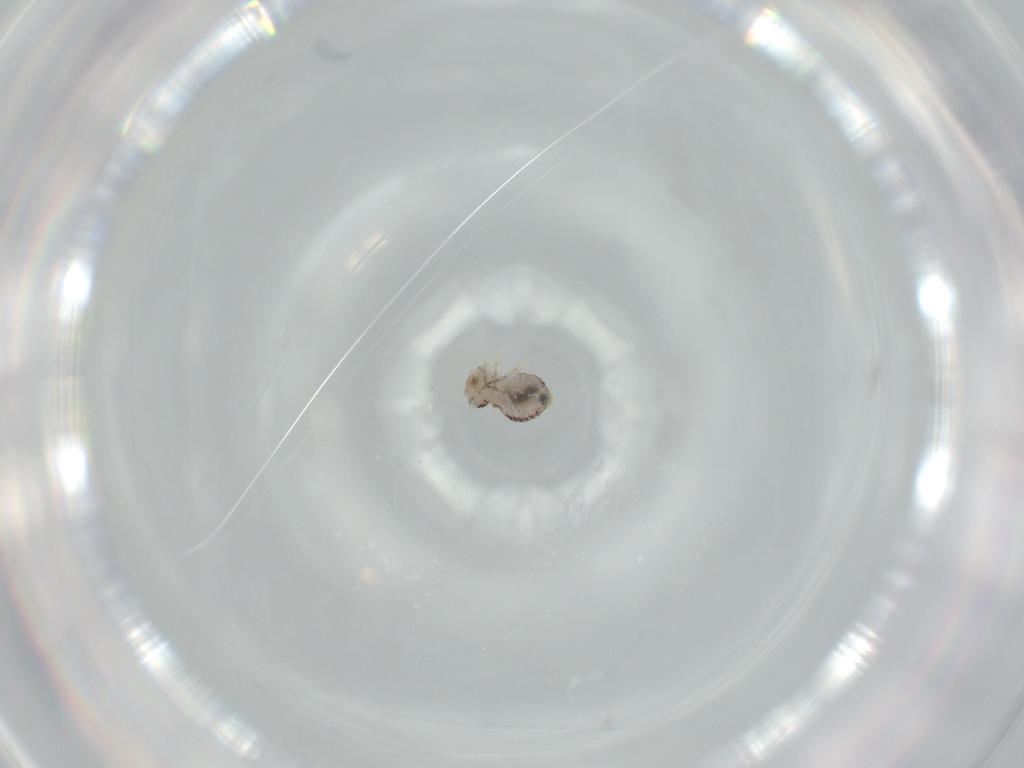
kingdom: Animalia
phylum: Arthropoda
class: Insecta
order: Psocodea
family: Psocidae
